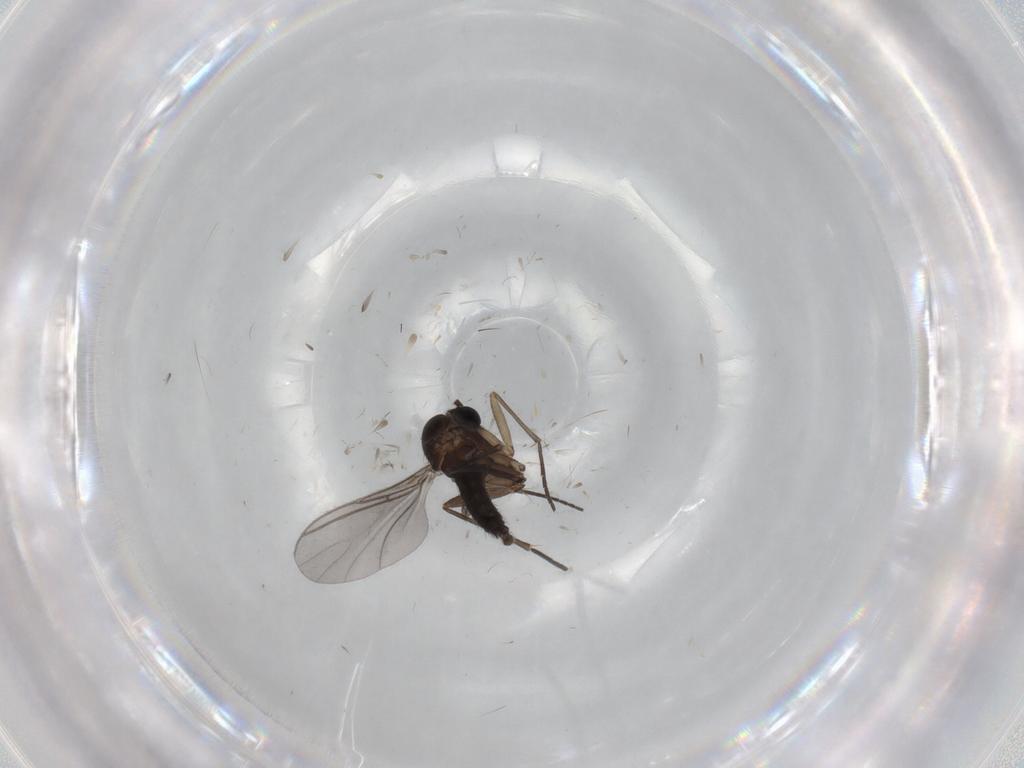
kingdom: Animalia
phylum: Arthropoda
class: Insecta
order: Diptera
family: Sciaridae
